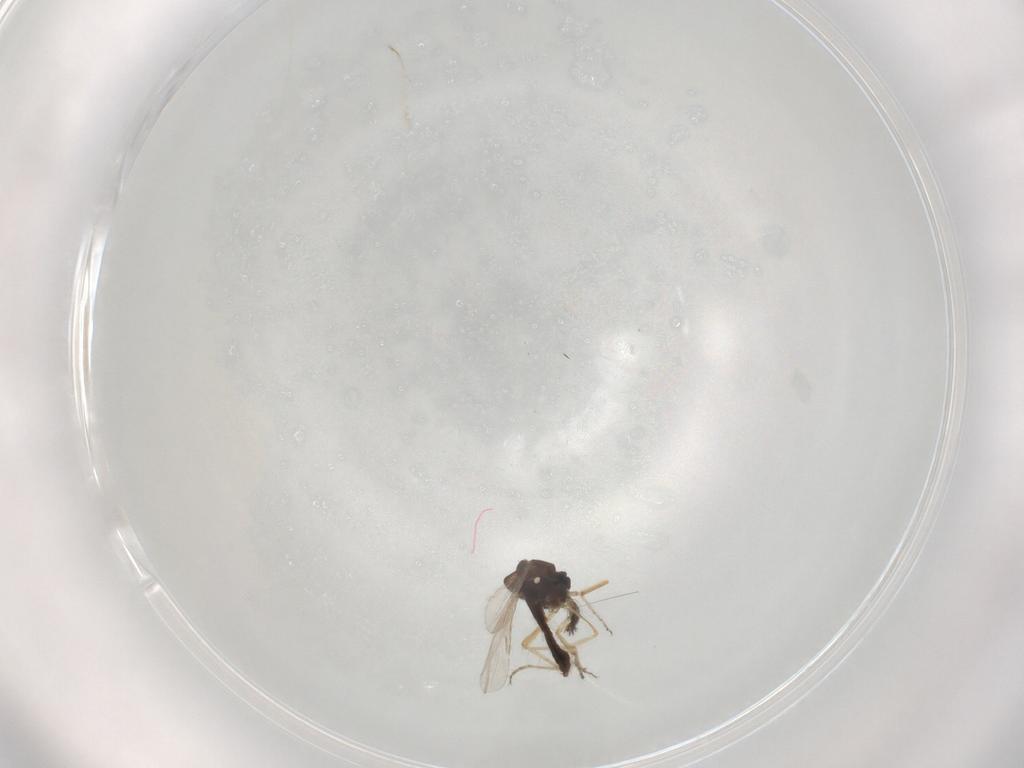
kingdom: Animalia
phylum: Arthropoda
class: Insecta
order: Diptera
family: Ceratopogonidae
